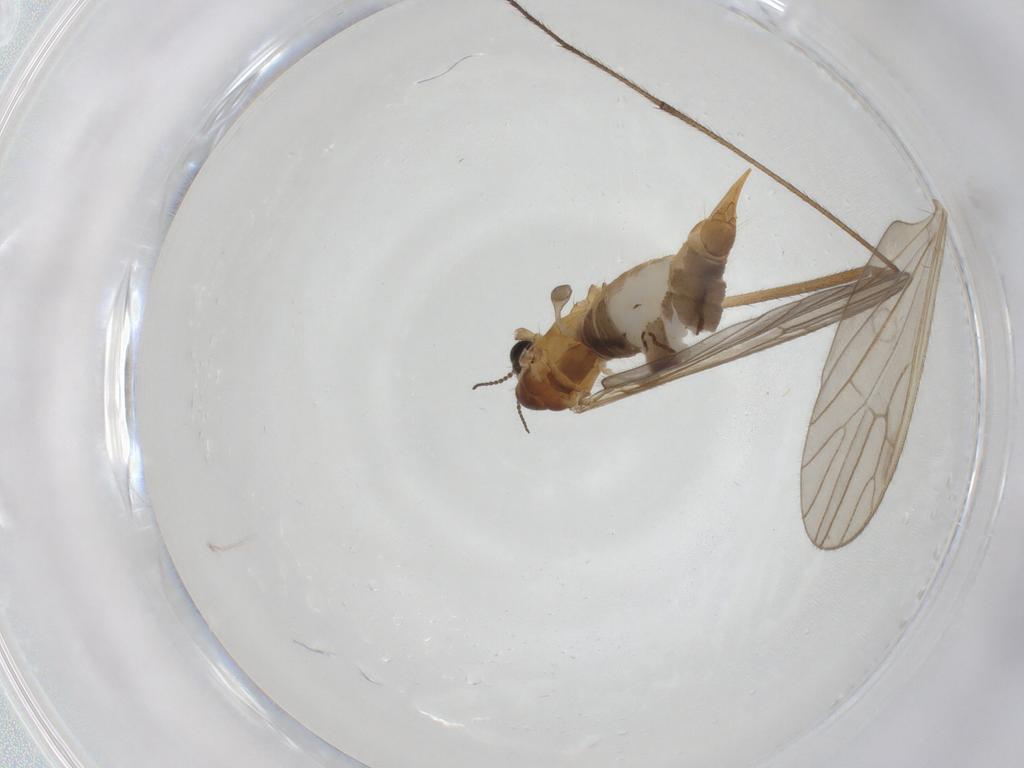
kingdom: Animalia
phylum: Arthropoda
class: Insecta
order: Diptera
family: Limoniidae
